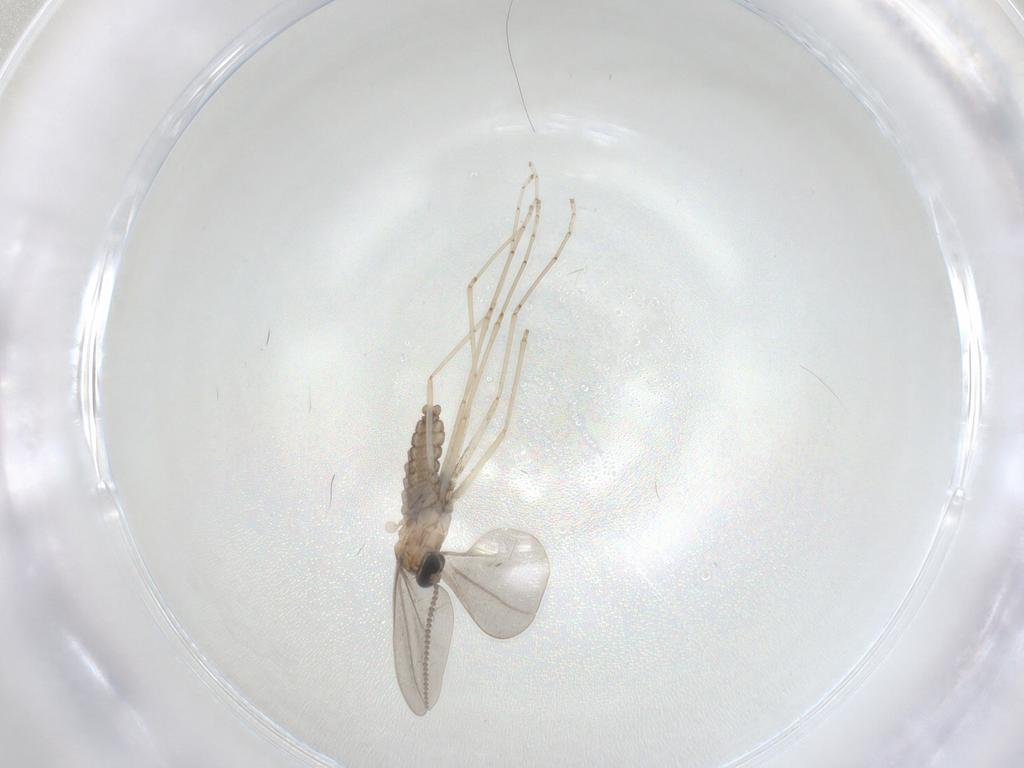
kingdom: Animalia
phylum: Arthropoda
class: Insecta
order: Diptera
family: Cecidomyiidae
